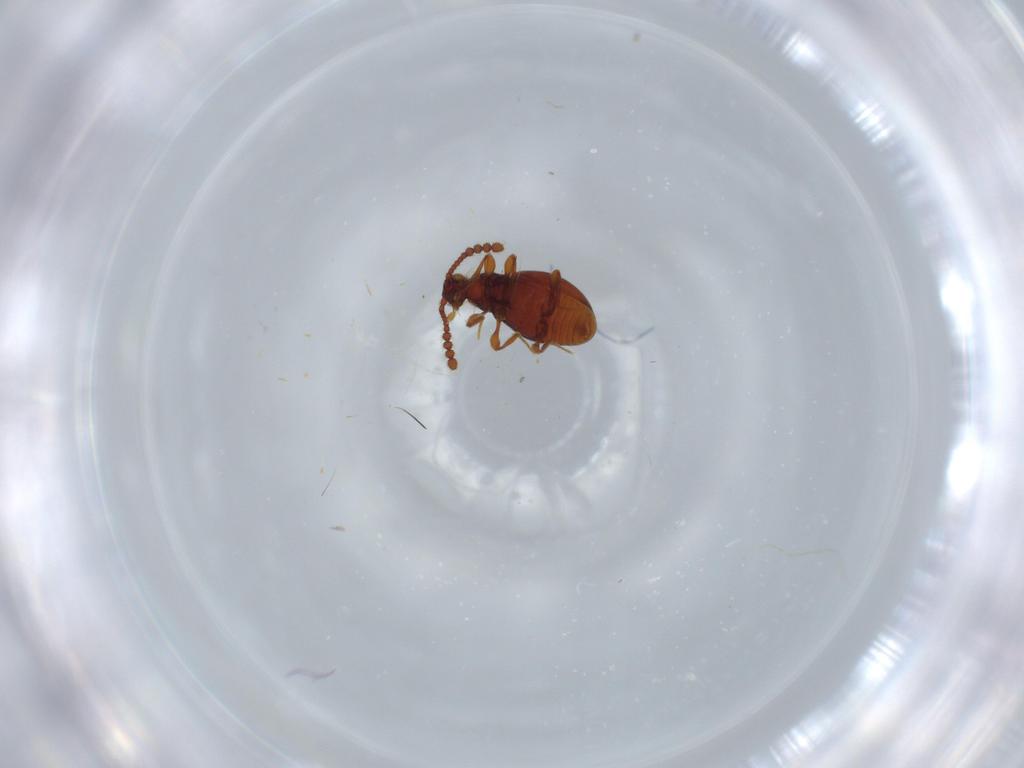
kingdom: Animalia
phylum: Arthropoda
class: Insecta
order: Coleoptera
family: Staphylinidae
